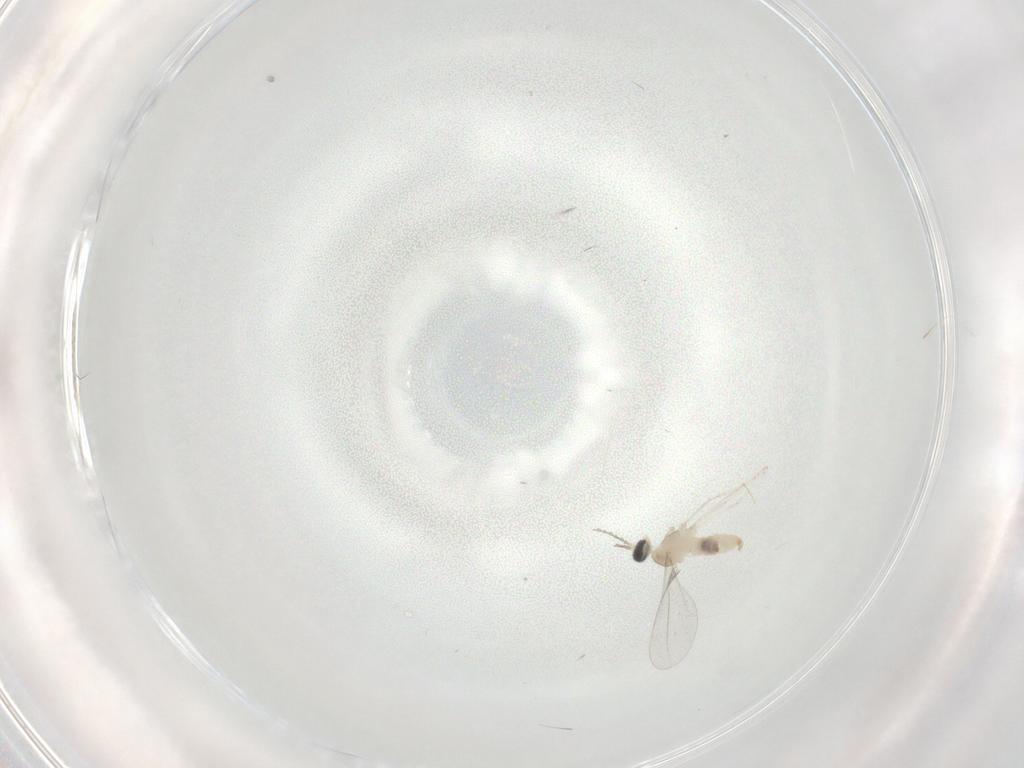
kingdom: Animalia
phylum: Arthropoda
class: Insecta
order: Diptera
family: Cecidomyiidae
